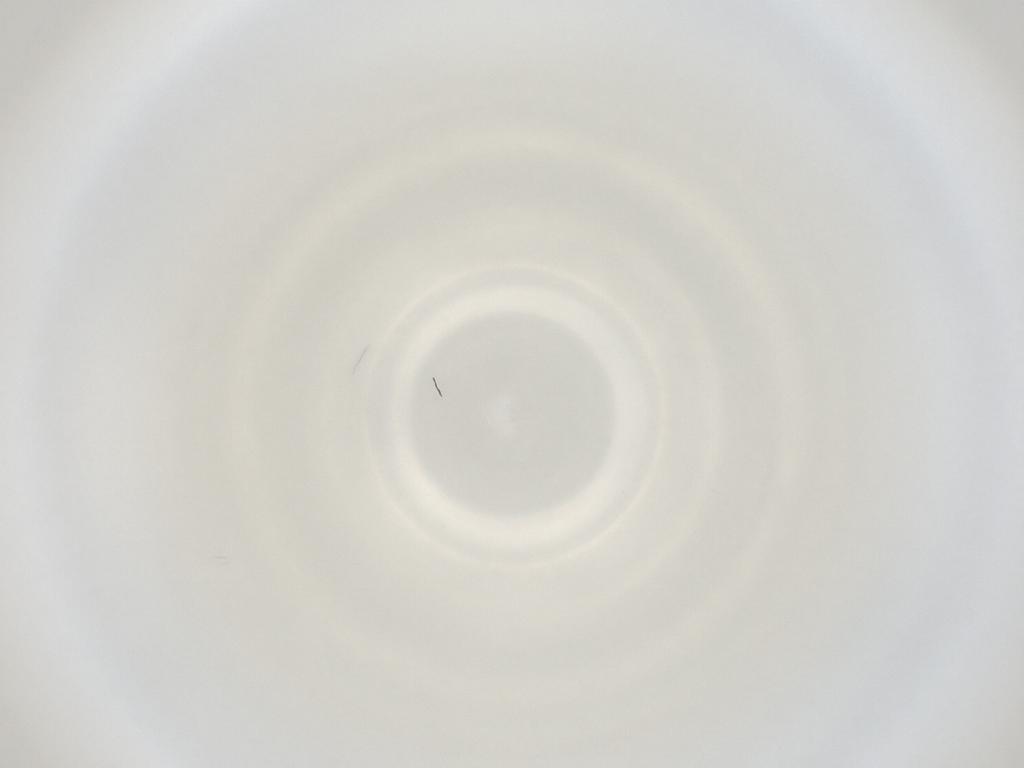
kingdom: Animalia
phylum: Arthropoda
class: Insecta
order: Diptera
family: Cecidomyiidae
